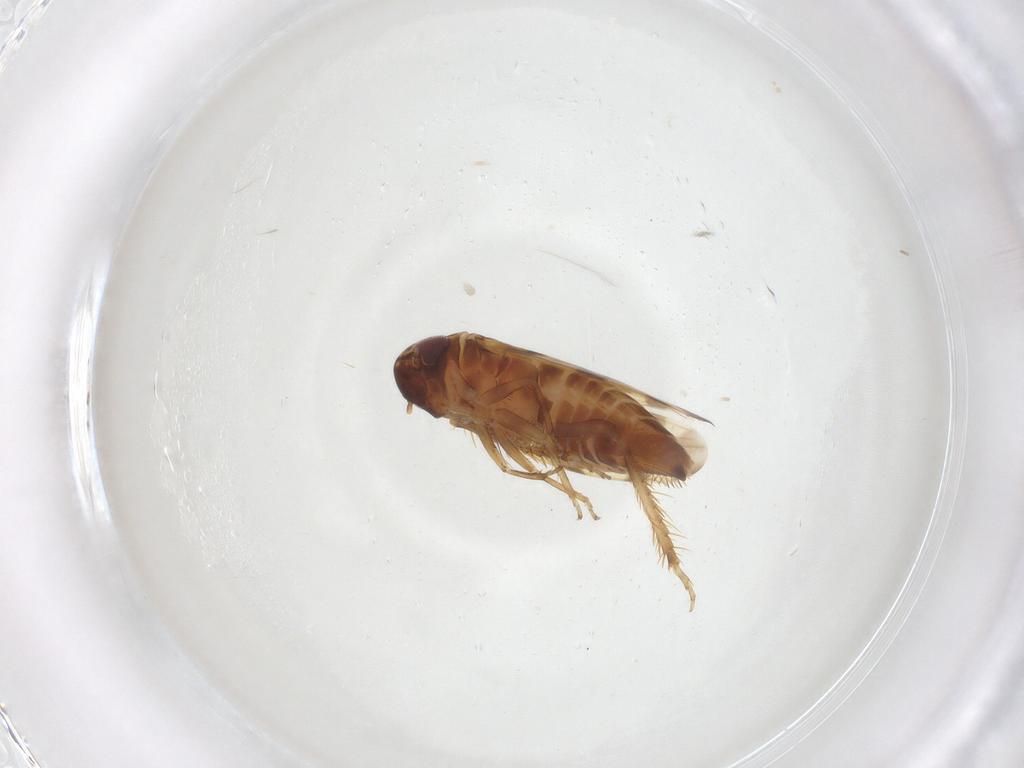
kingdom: Animalia
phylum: Arthropoda
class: Insecta
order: Hemiptera
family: Cicadellidae
